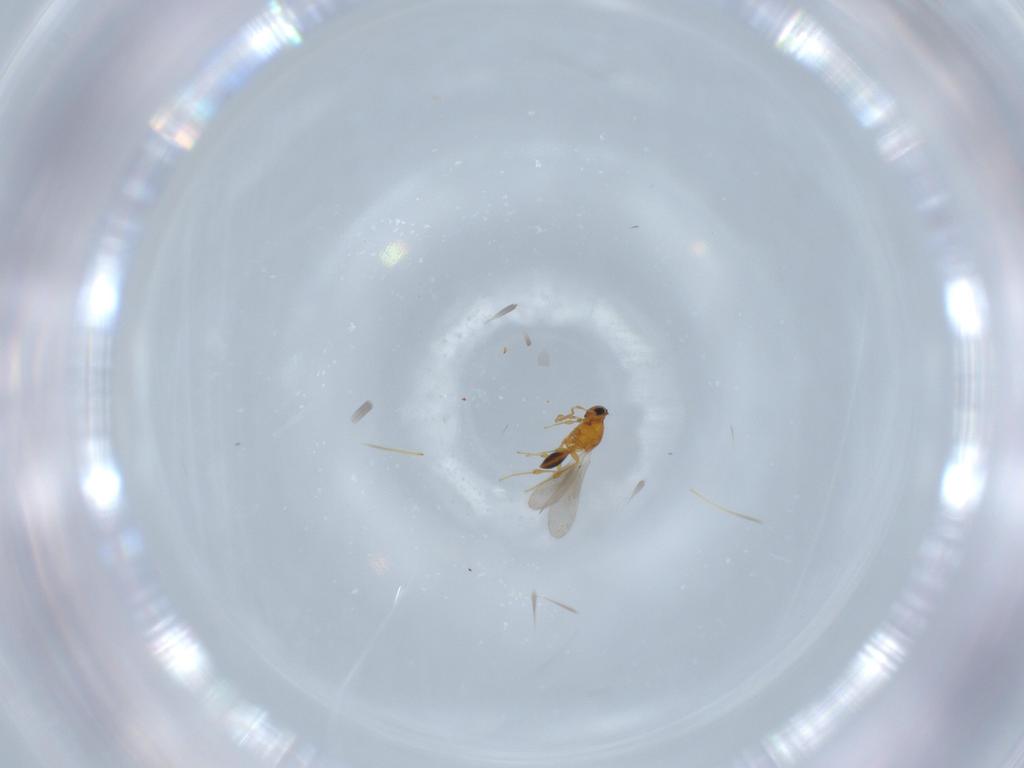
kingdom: Animalia
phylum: Arthropoda
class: Insecta
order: Hymenoptera
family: Platygastridae
